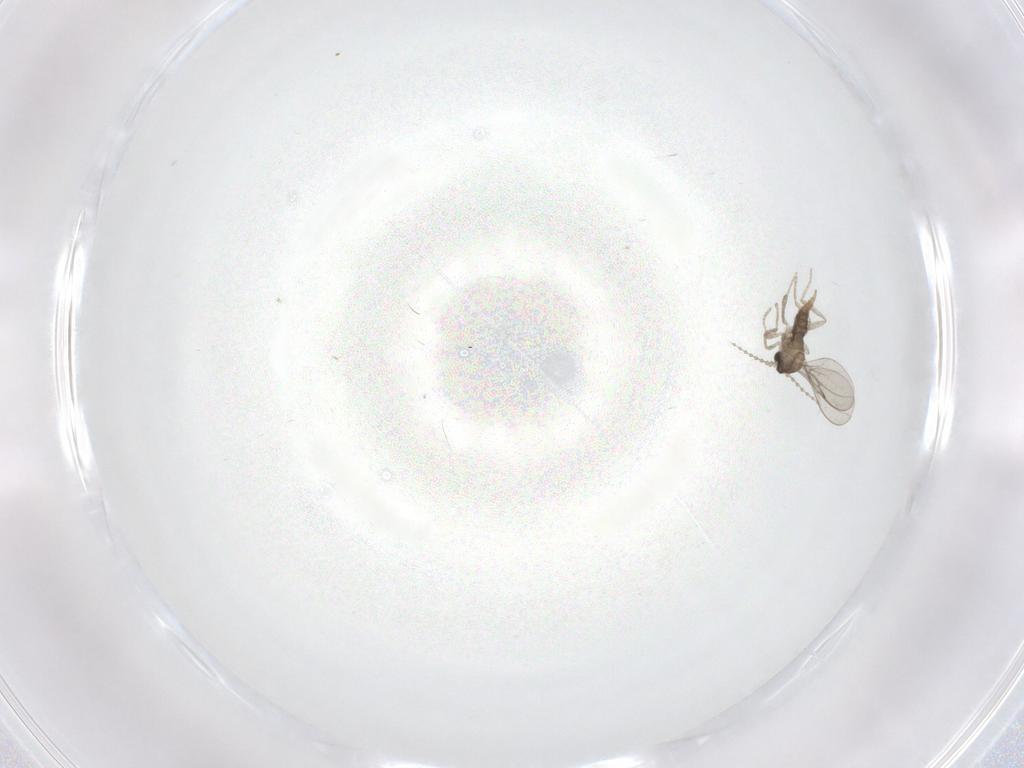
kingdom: Animalia
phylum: Arthropoda
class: Insecta
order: Diptera
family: Cecidomyiidae
